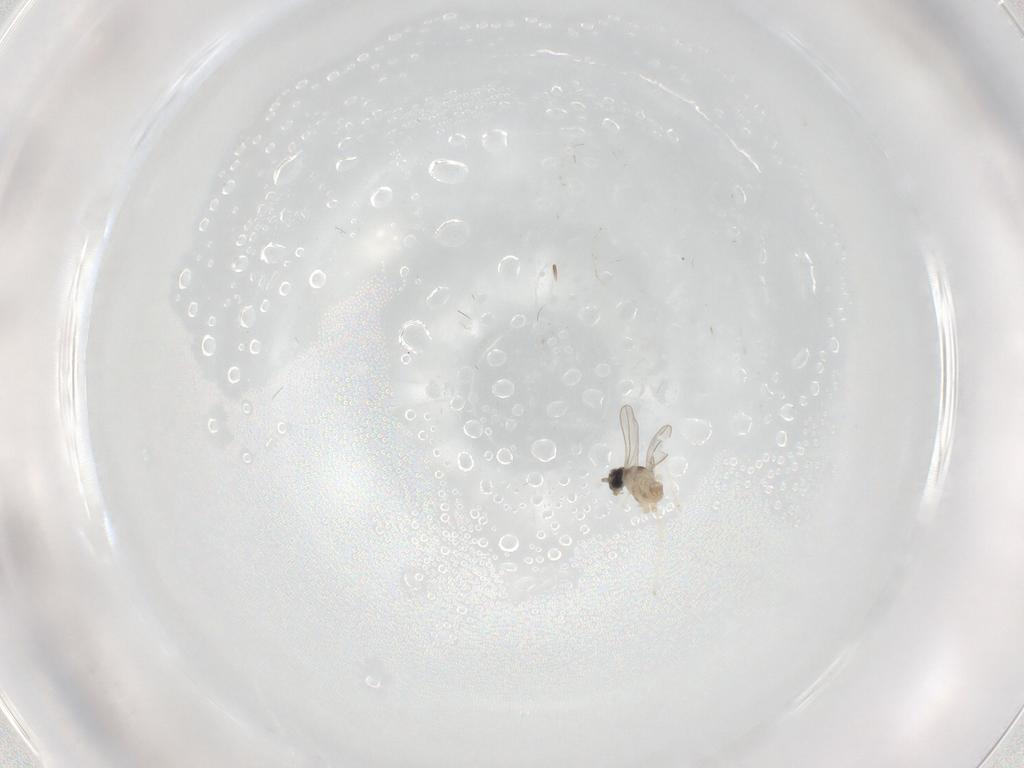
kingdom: Animalia
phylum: Arthropoda
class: Insecta
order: Diptera
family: Cecidomyiidae
